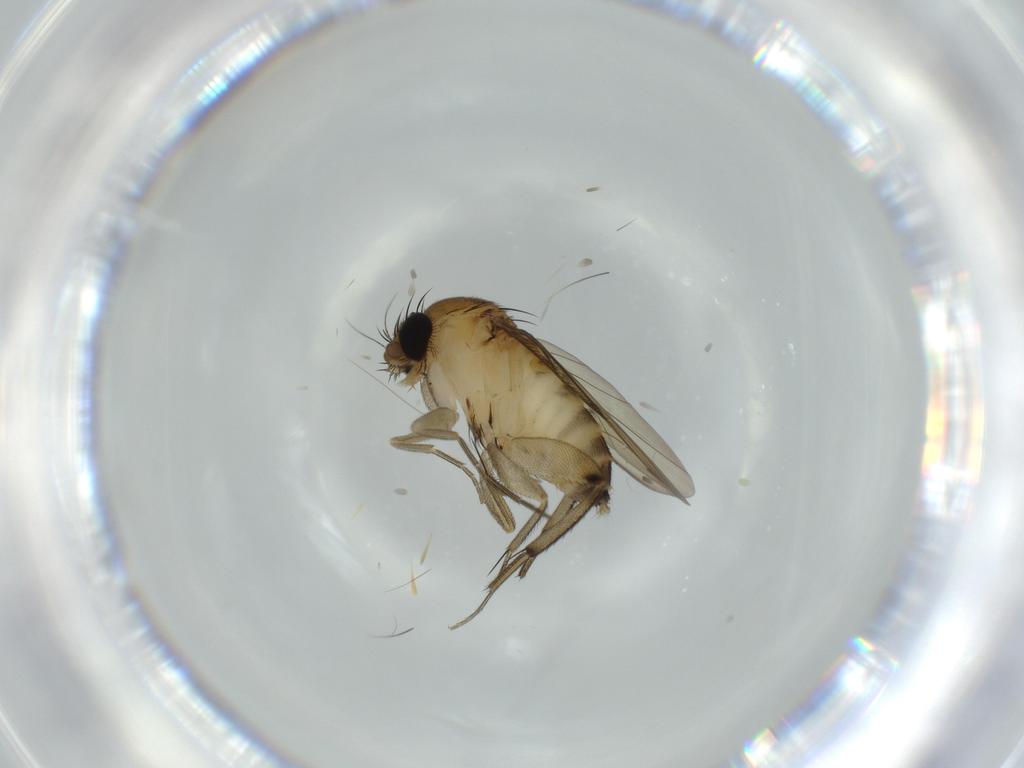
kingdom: Animalia
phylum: Arthropoda
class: Insecta
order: Diptera
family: Phoridae
